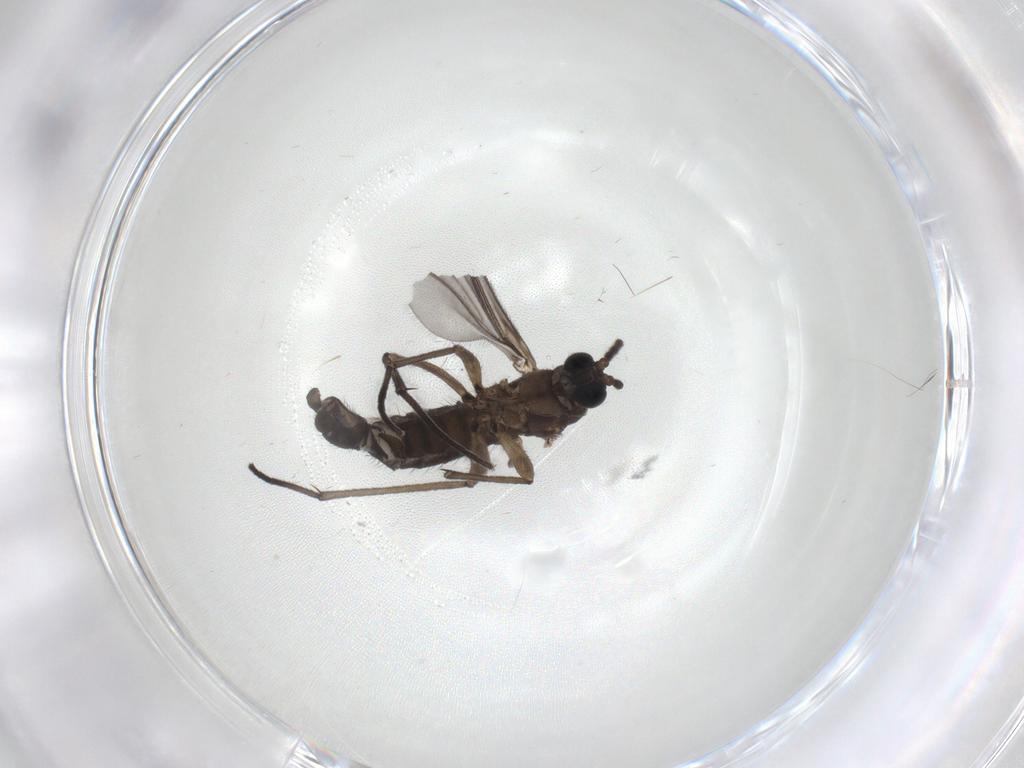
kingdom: Animalia
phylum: Arthropoda
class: Insecta
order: Diptera
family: Sciaridae
